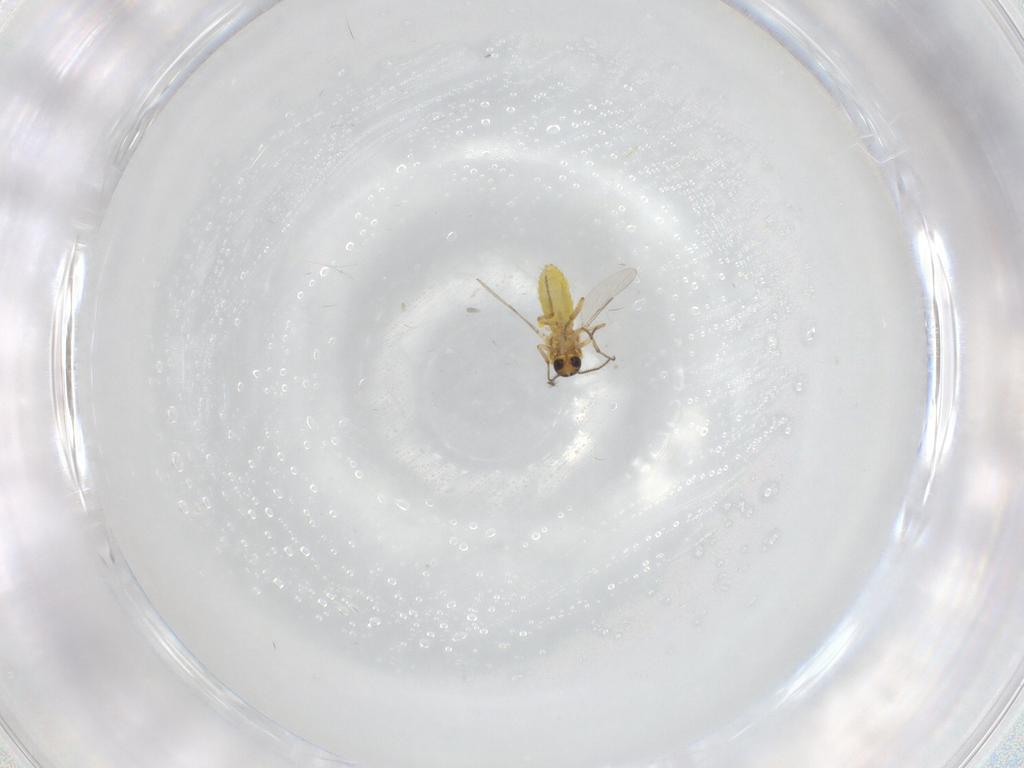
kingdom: Animalia
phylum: Arthropoda
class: Insecta
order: Diptera
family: Ceratopogonidae
